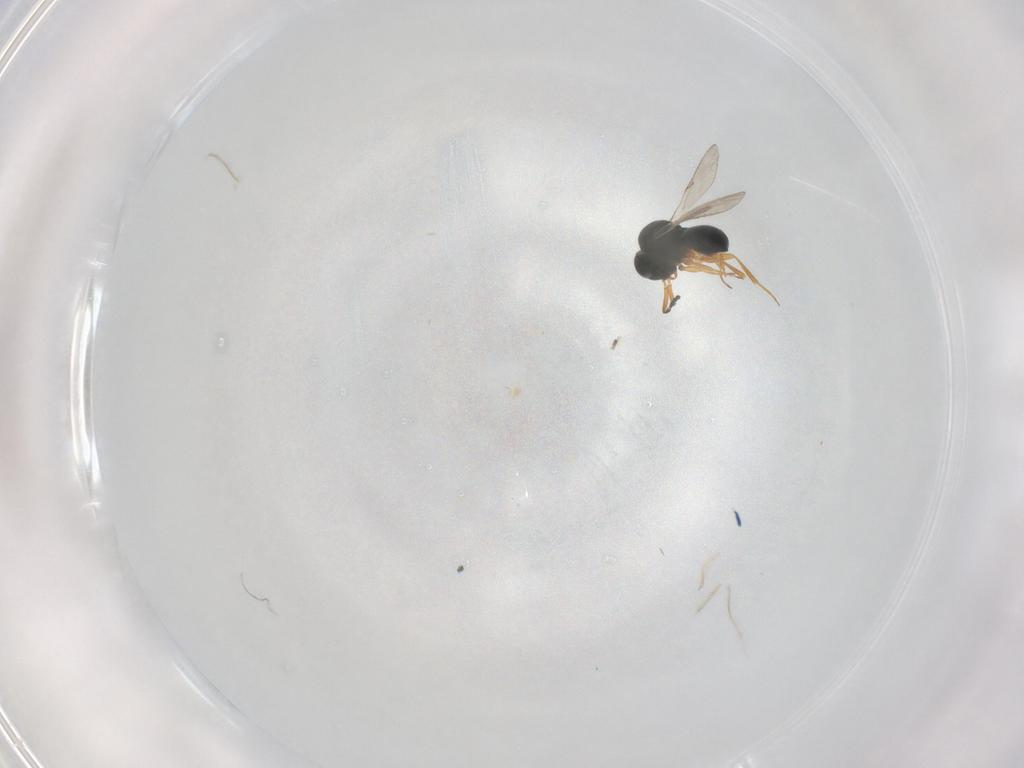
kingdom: Animalia
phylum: Arthropoda
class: Insecta
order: Hymenoptera
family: Scelionidae
